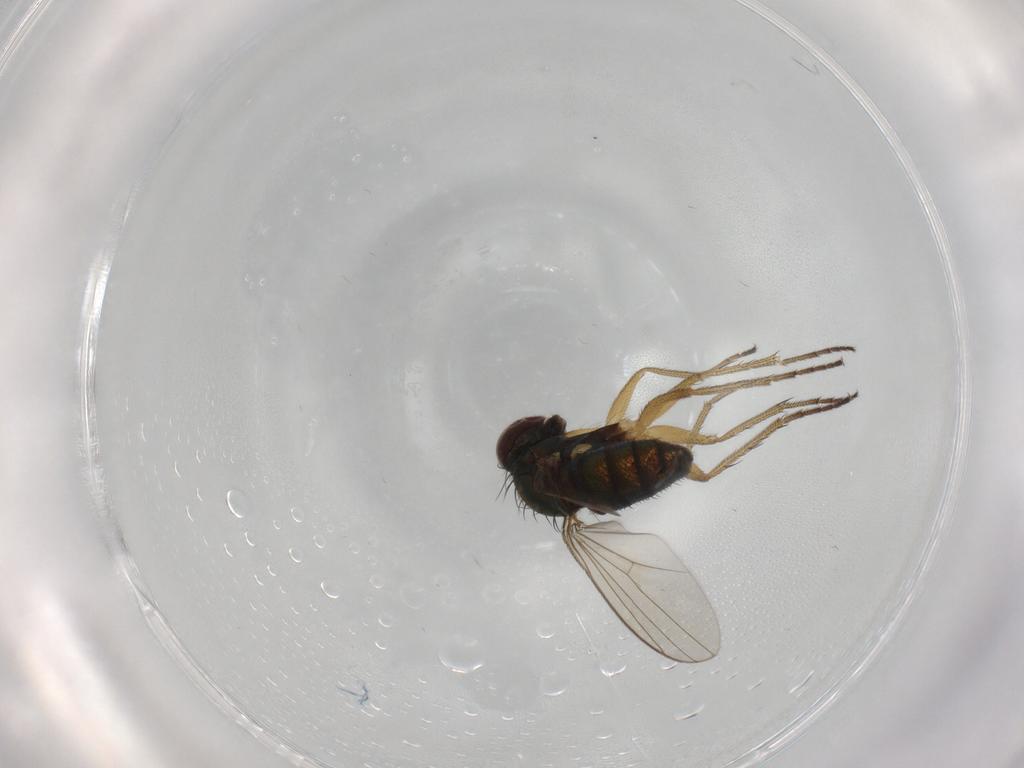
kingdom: Animalia
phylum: Arthropoda
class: Insecta
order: Diptera
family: Dolichopodidae
